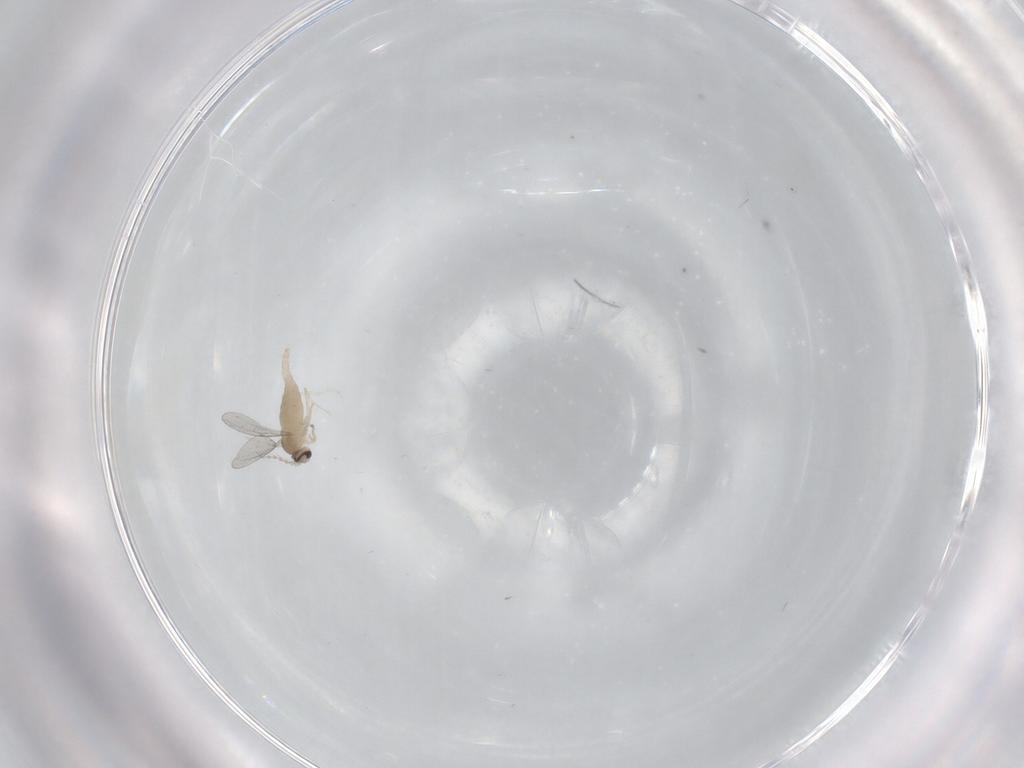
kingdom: Animalia
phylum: Arthropoda
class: Insecta
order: Diptera
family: Cecidomyiidae
